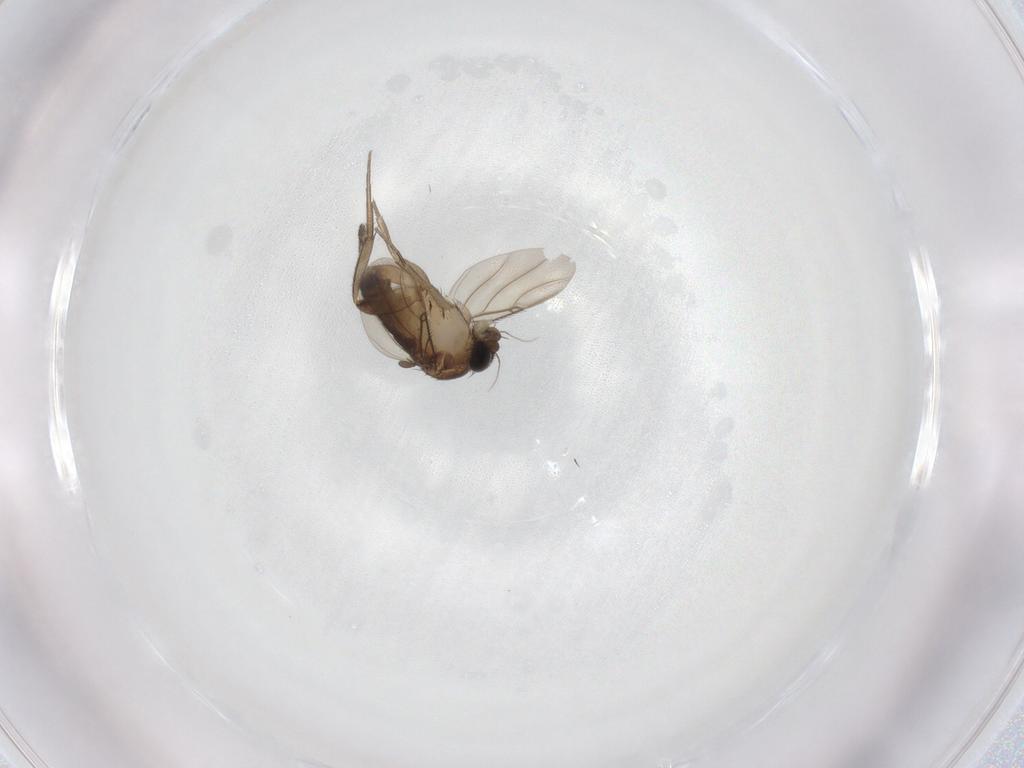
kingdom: Animalia
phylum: Arthropoda
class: Insecta
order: Diptera
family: Phoridae
